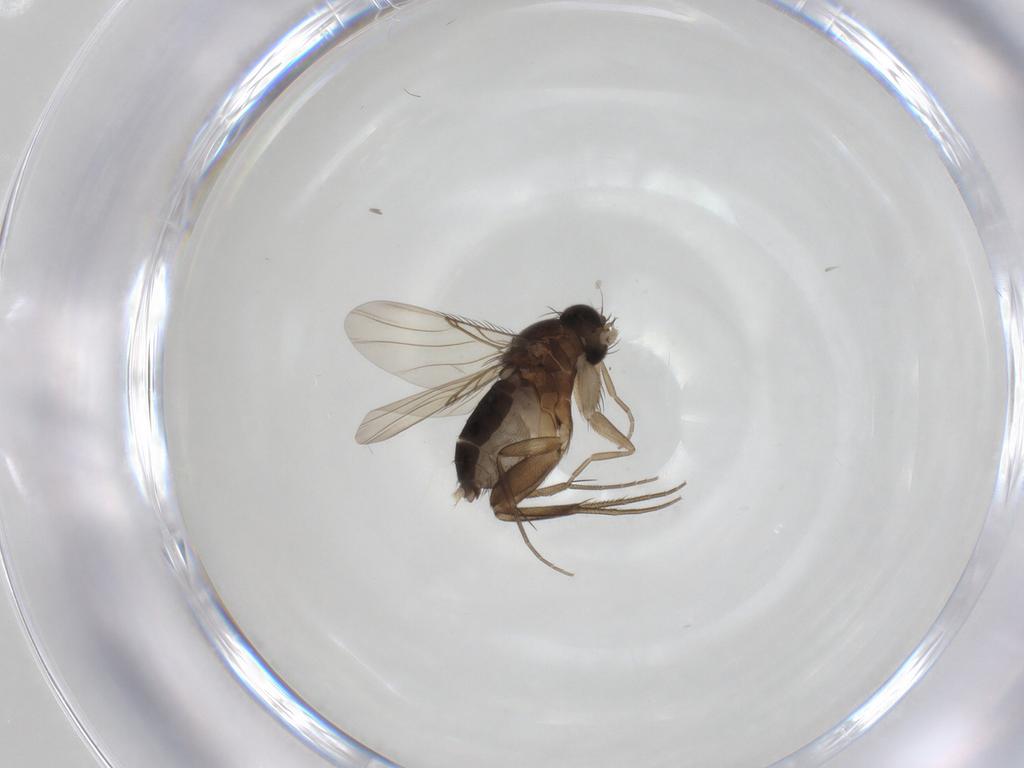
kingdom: Animalia
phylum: Arthropoda
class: Insecta
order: Diptera
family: Phoridae
